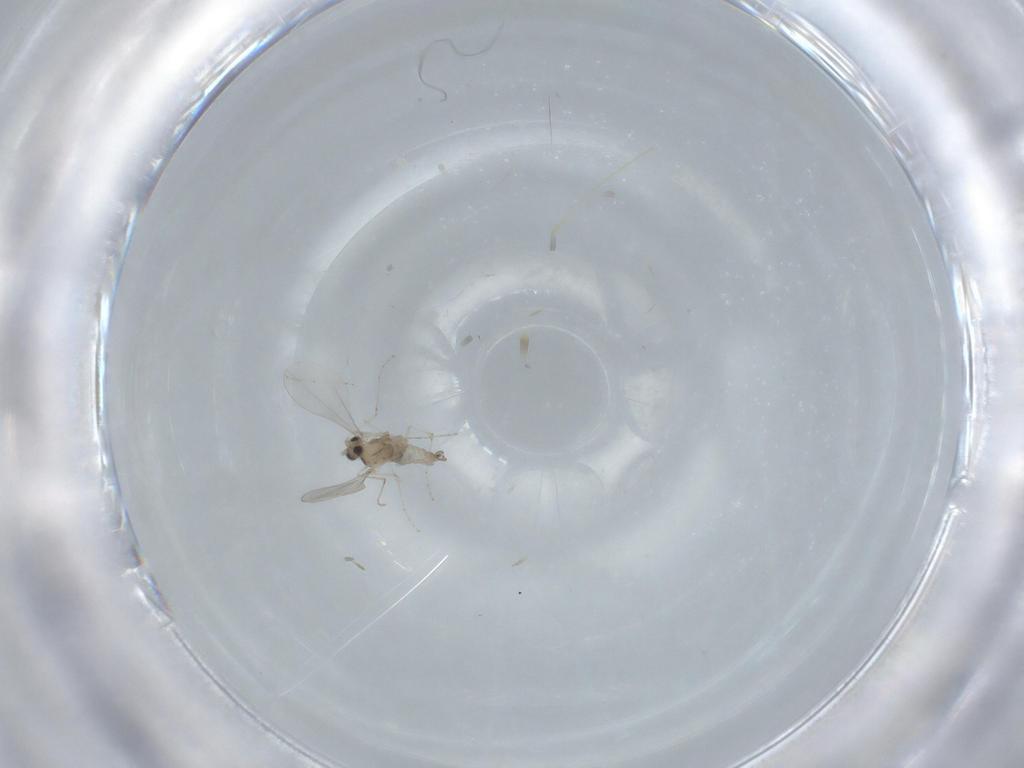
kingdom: Animalia
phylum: Arthropoda
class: Insecta
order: Diptera
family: Cecidomyiidae
